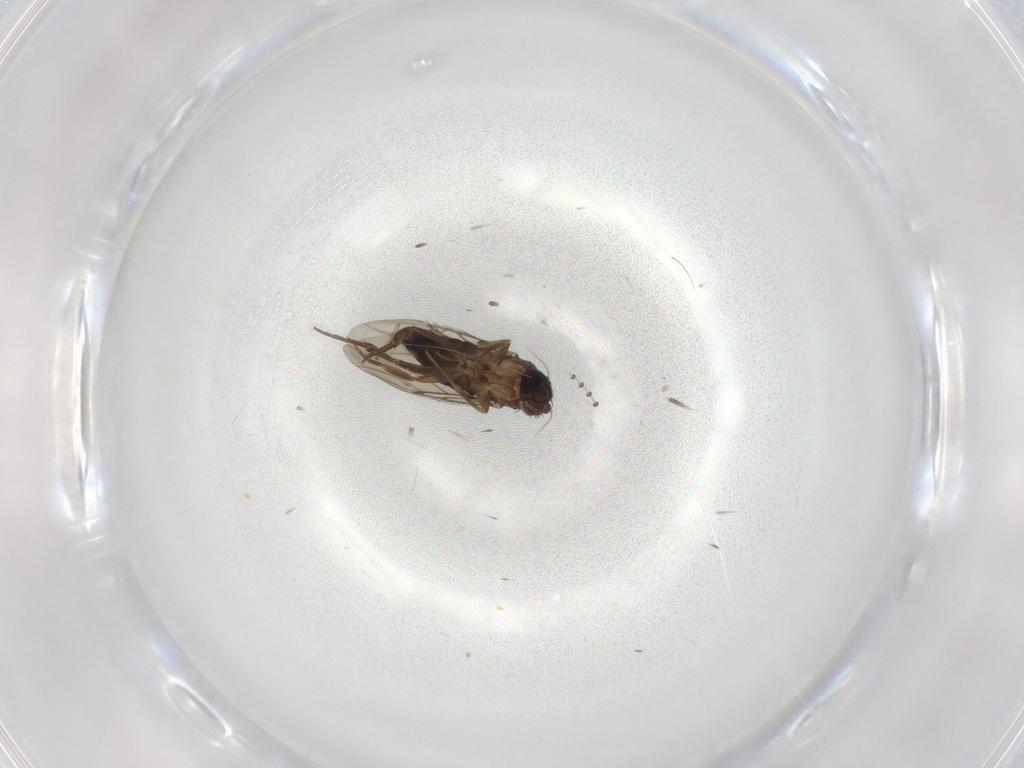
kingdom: Animalia
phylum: Arthropoda
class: Insecta
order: Diptera
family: Phoridae
